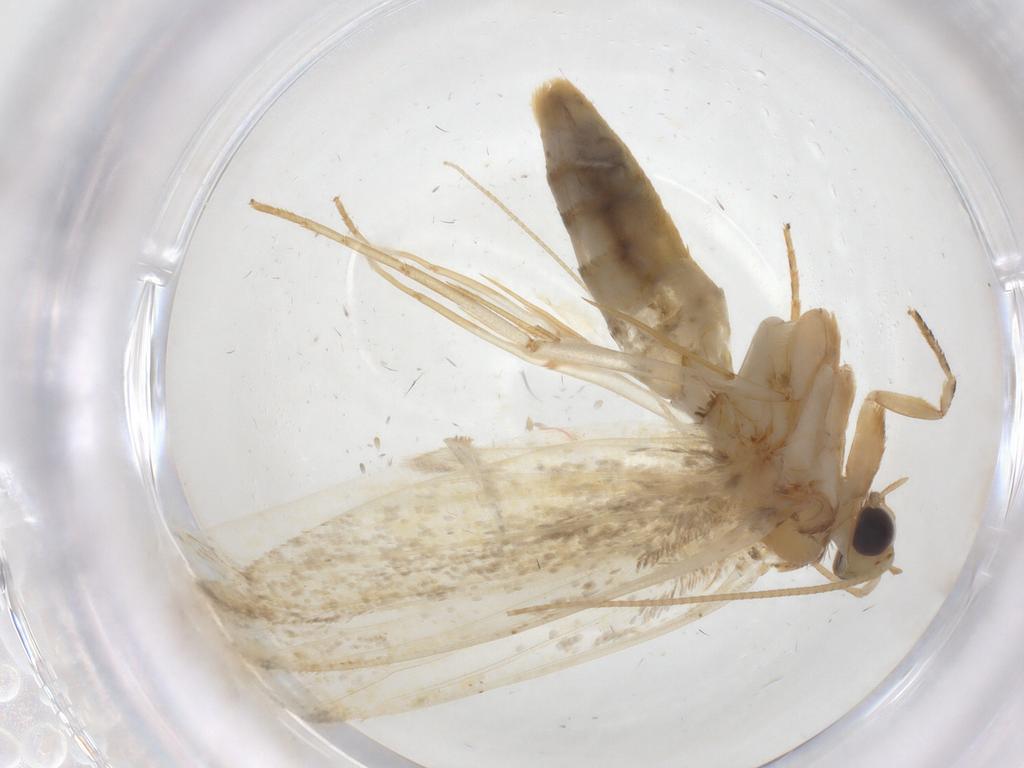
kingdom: Animalia
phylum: Arthropoda
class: Insecta
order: Lepidoptera
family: Tineidae
